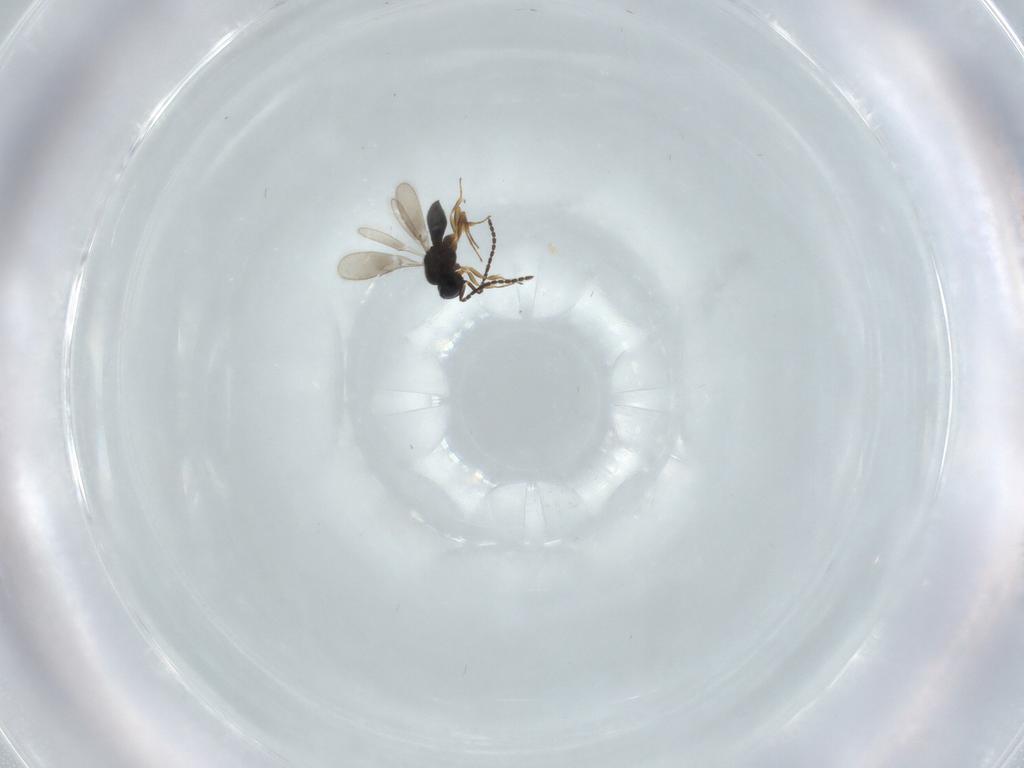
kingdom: Animalia
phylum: Arthropoda
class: Insecta
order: Hymenoptera
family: Scelionidae
